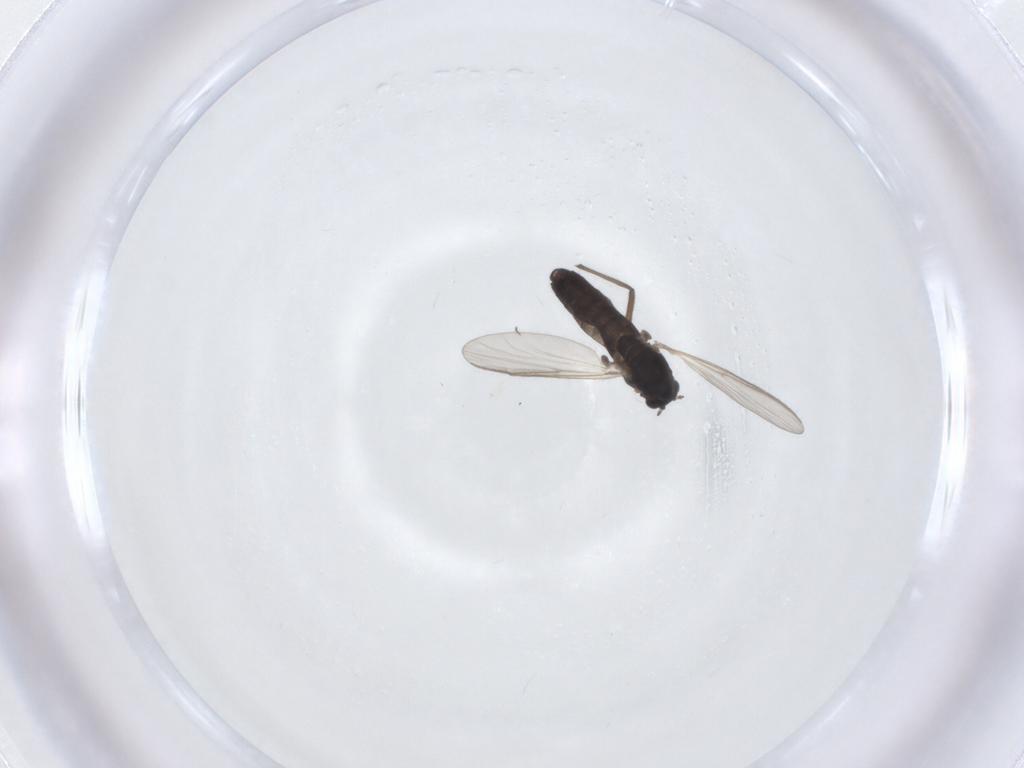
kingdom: Animalia
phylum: Arthropoda
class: Insecta
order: Diptera
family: Chironomidae
